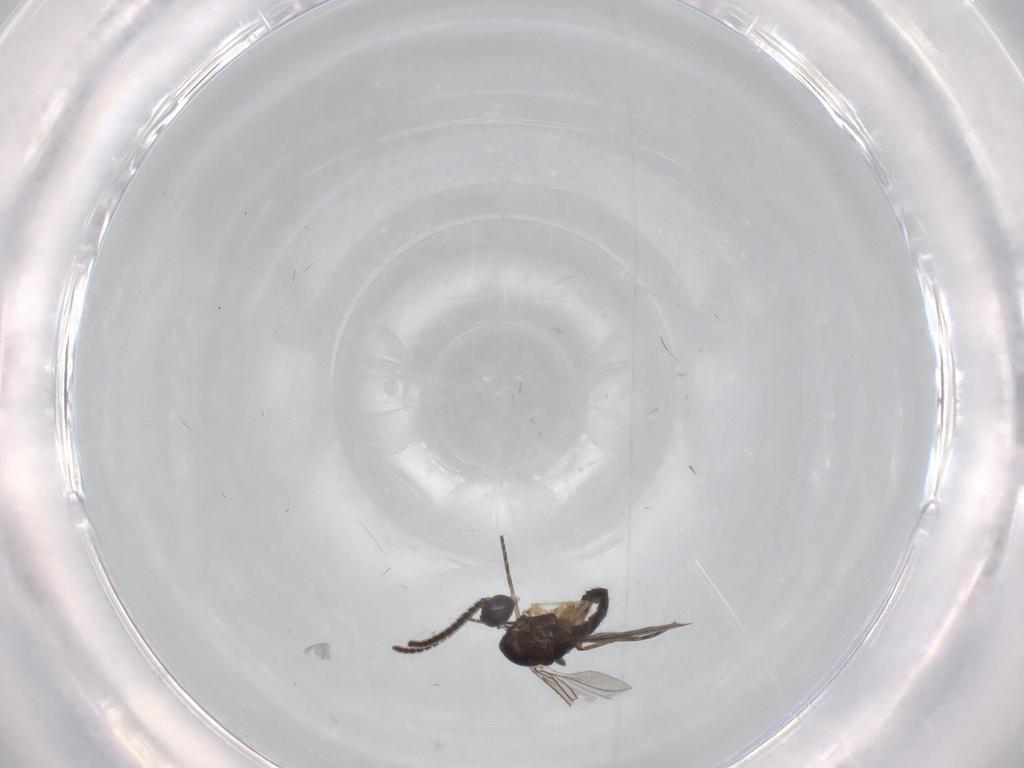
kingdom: Animalia
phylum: Arthropoda
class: Insecta
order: Diptera
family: Sciaridae
